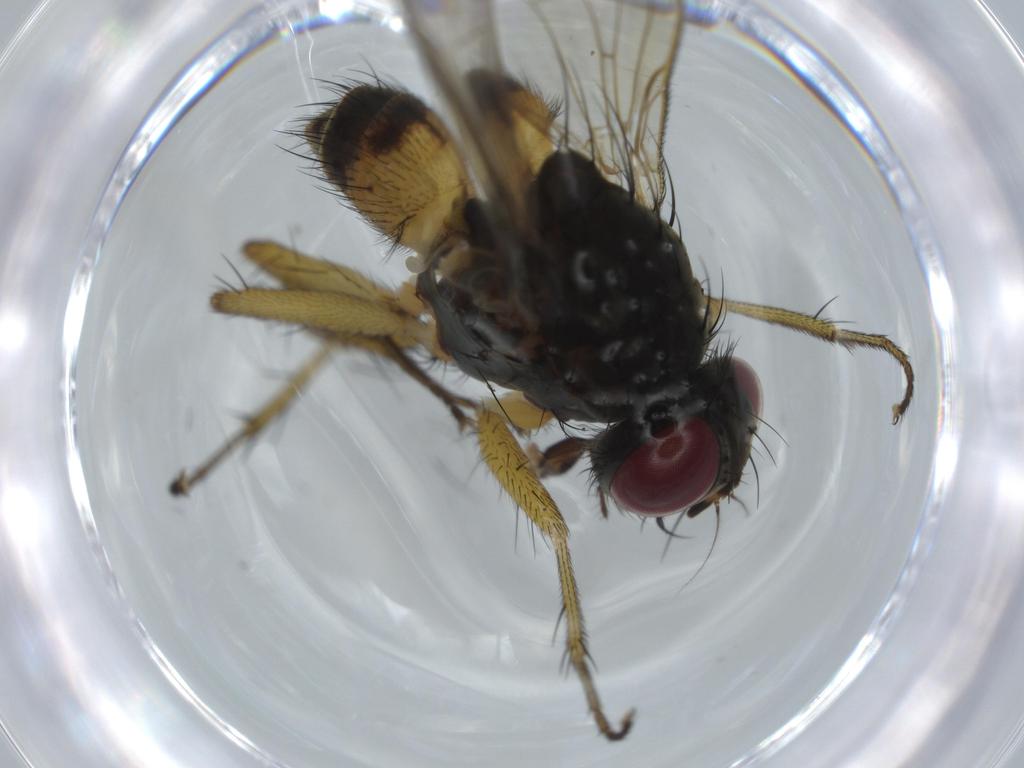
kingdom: Animalia
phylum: Arthropoda
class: Insecta
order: Diptera
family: Muscidae
